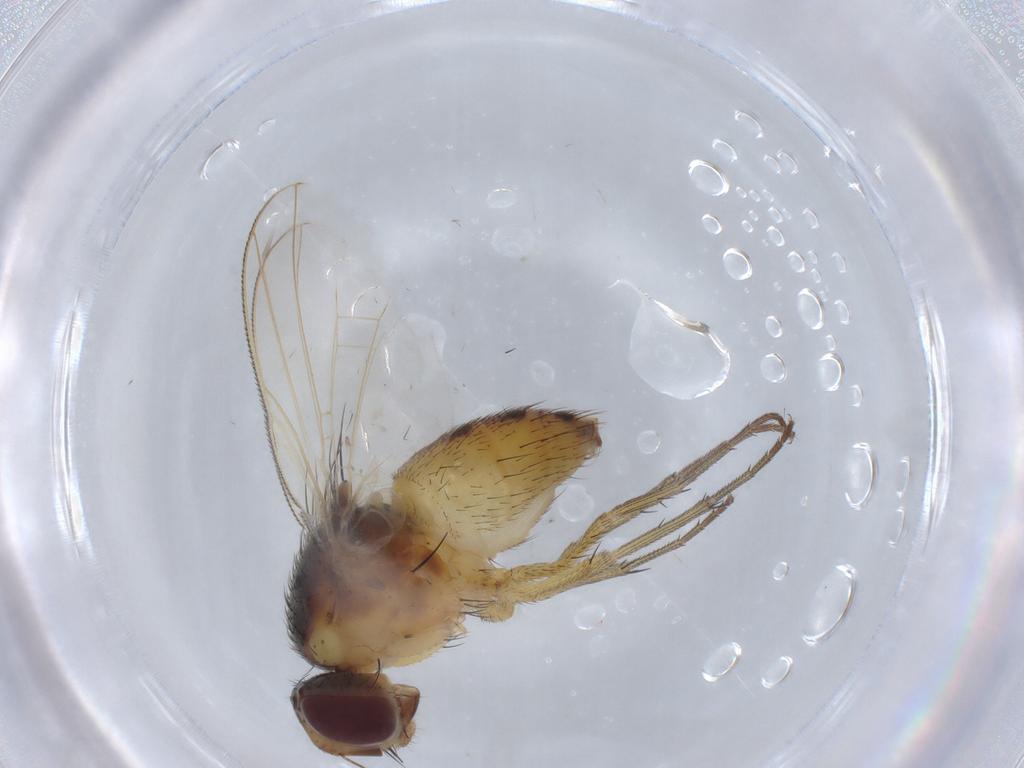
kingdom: Animalia
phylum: Arthropoda
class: Insecta
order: Diptera
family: Muscidae
